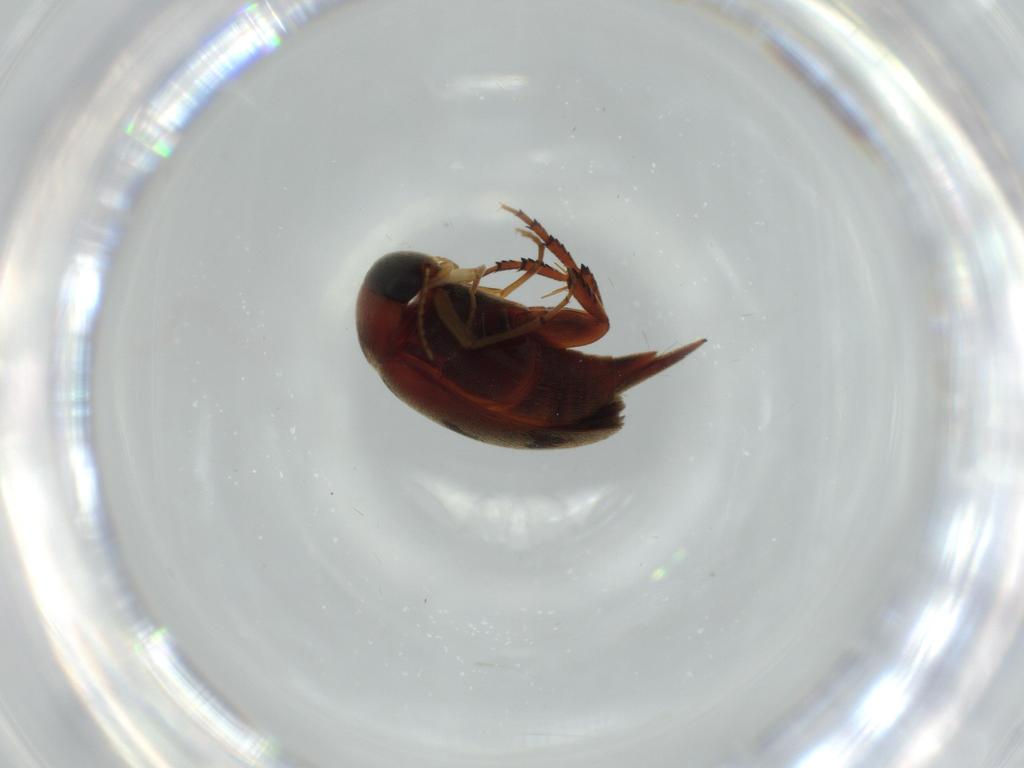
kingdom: Animalia
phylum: Arthropoda
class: Insecta
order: Coleoptera
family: Mordellidae
